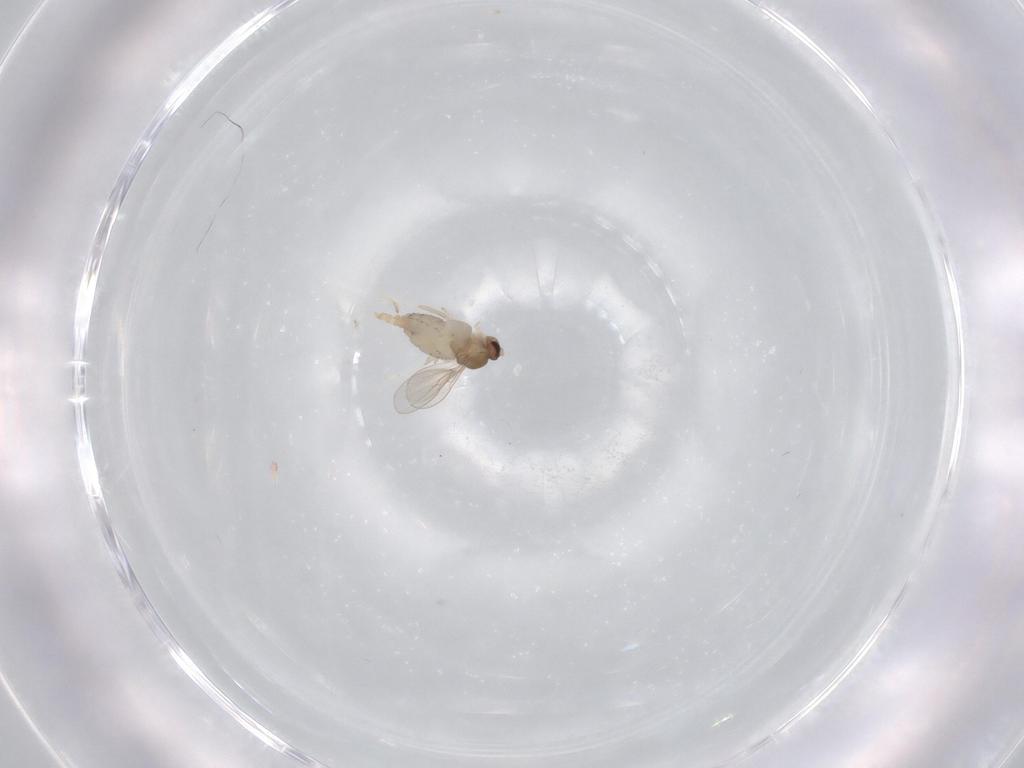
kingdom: Animalia
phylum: Arthropoda
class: Insecta
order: Diptera
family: Cecidomyiidae
